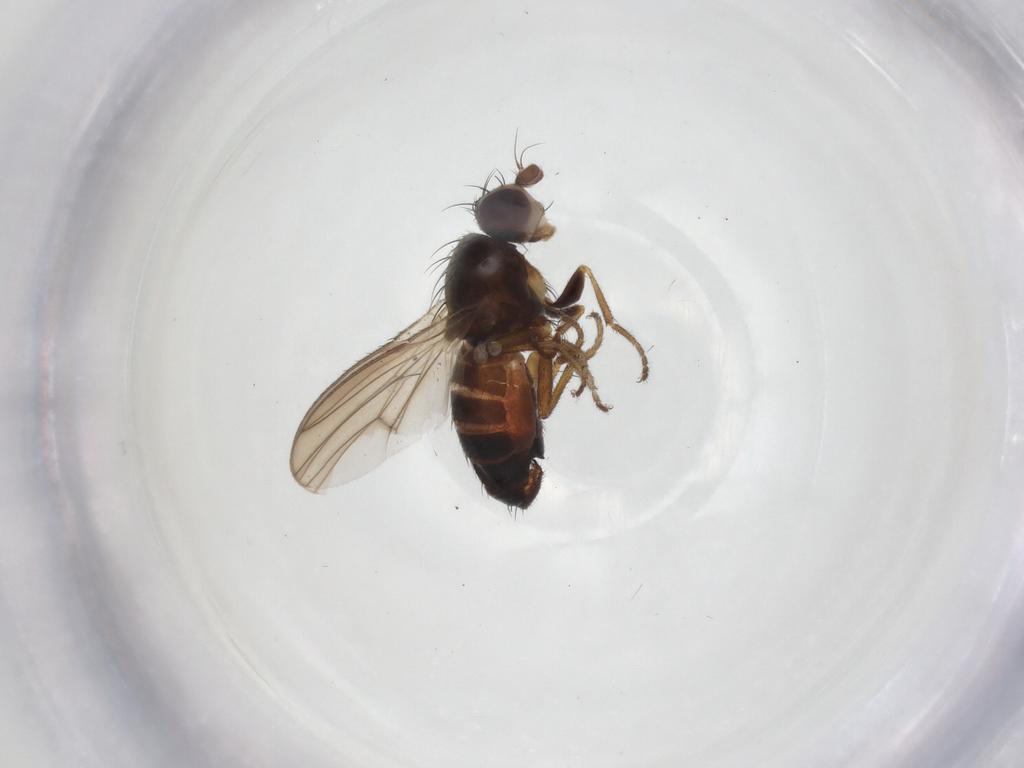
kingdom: Animalia
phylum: Arthropoda
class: Insecta
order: Diptera
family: Heleomyzidae
